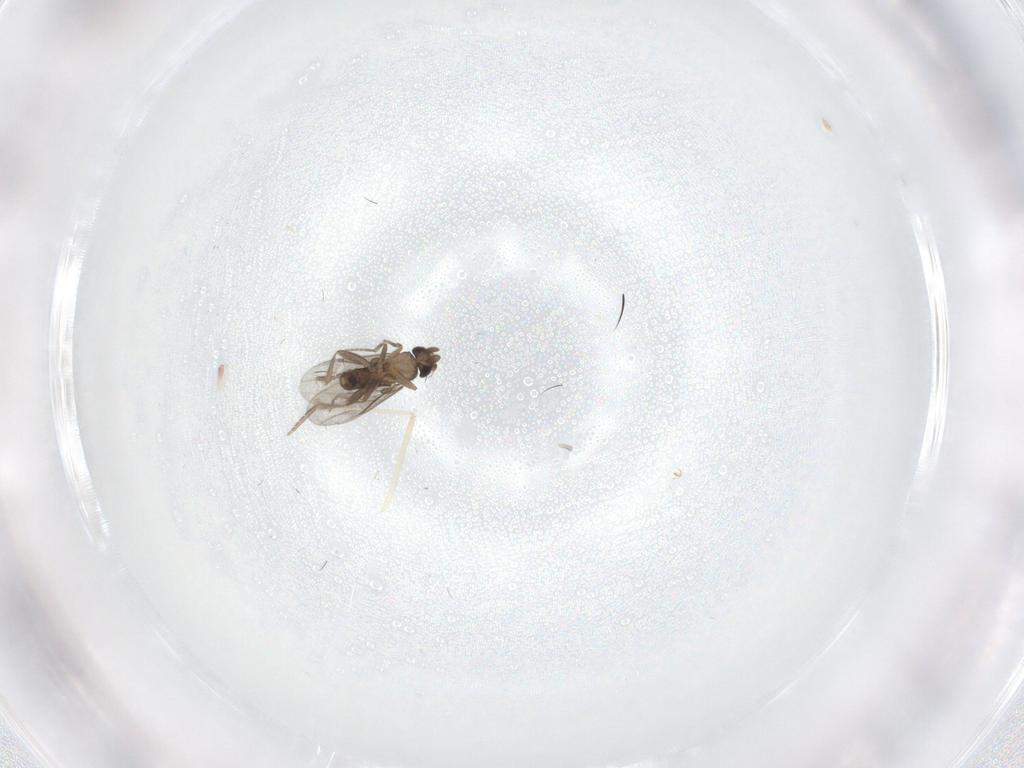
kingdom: Animalia
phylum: Arthropoda
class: Insecta
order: Diptera
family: Cecidomyiidae
